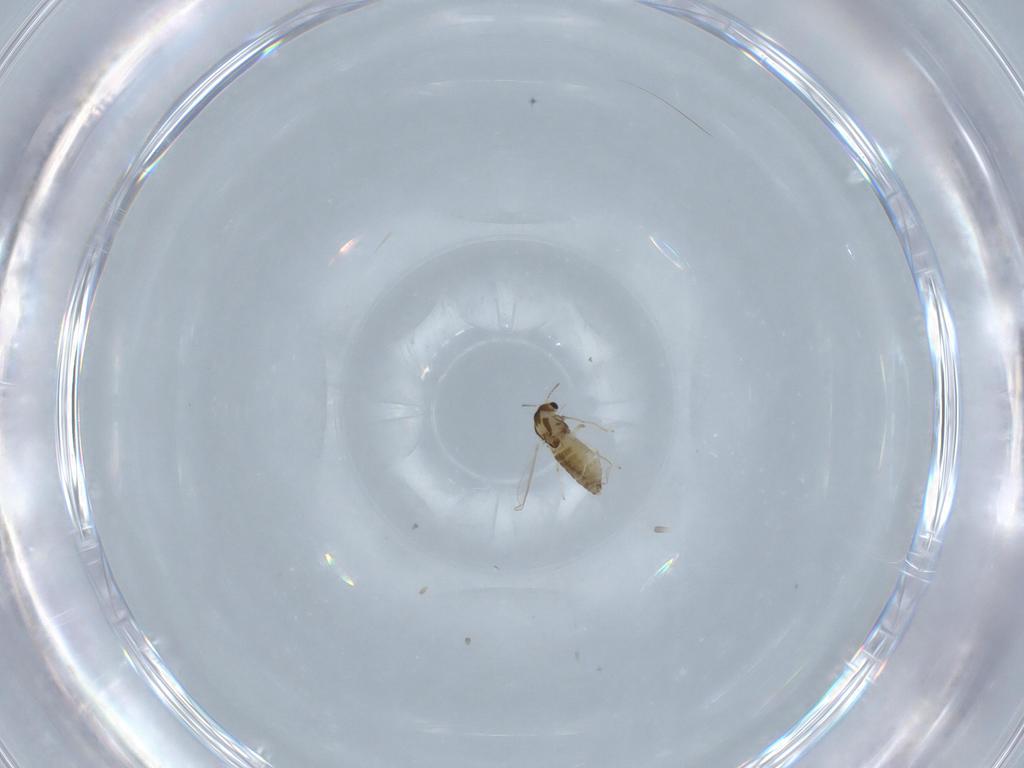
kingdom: Animalia
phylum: Arthropoda
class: Insecta
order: Diptera
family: Cecidomyiidae
